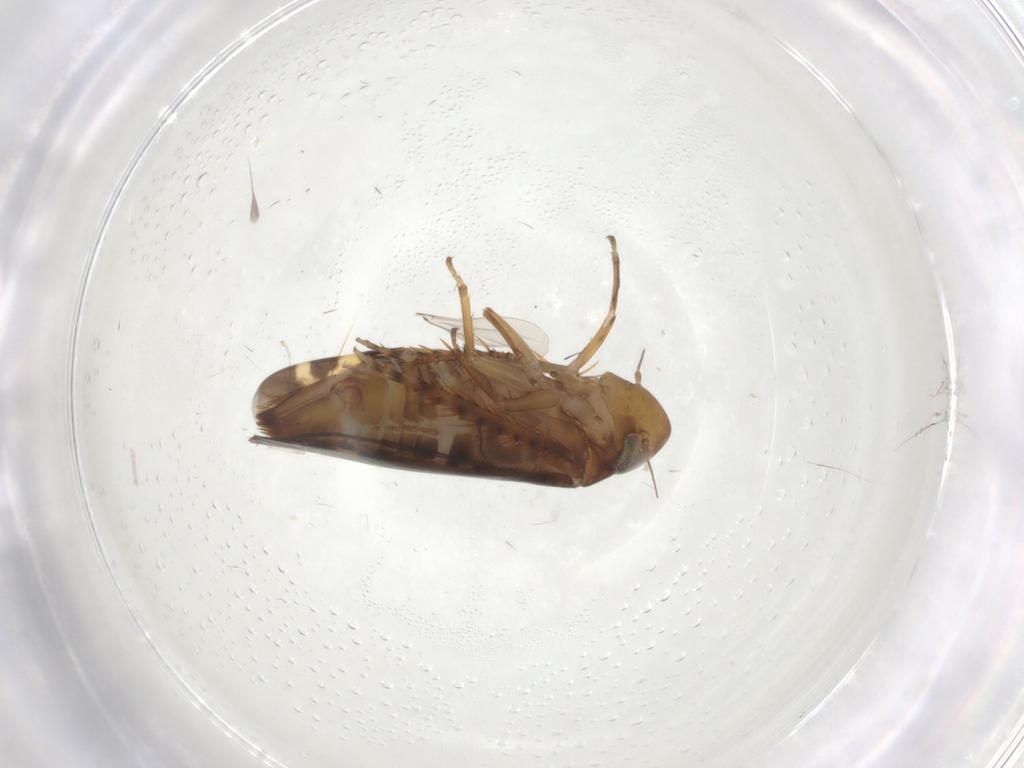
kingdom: Animalia
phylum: Arthropoda
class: Insecta
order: Hemiptera
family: Cicadellidae
